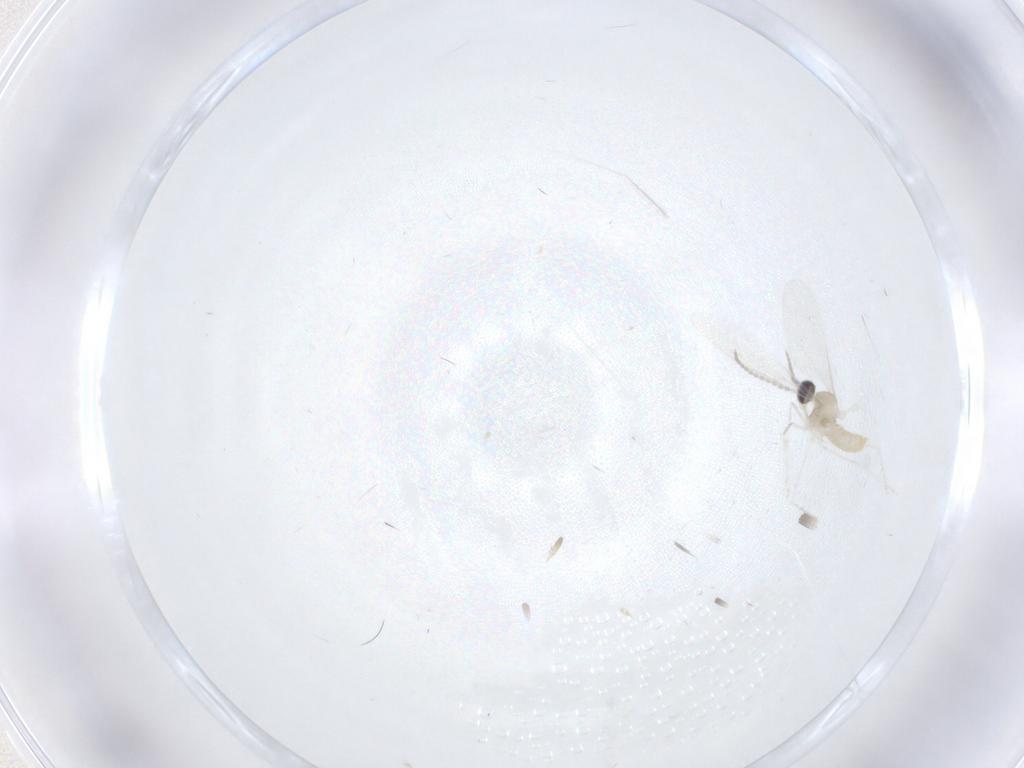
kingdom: Animalia
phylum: Arthropoda
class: Insecta
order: Diptera
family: Cecidomyiidae
